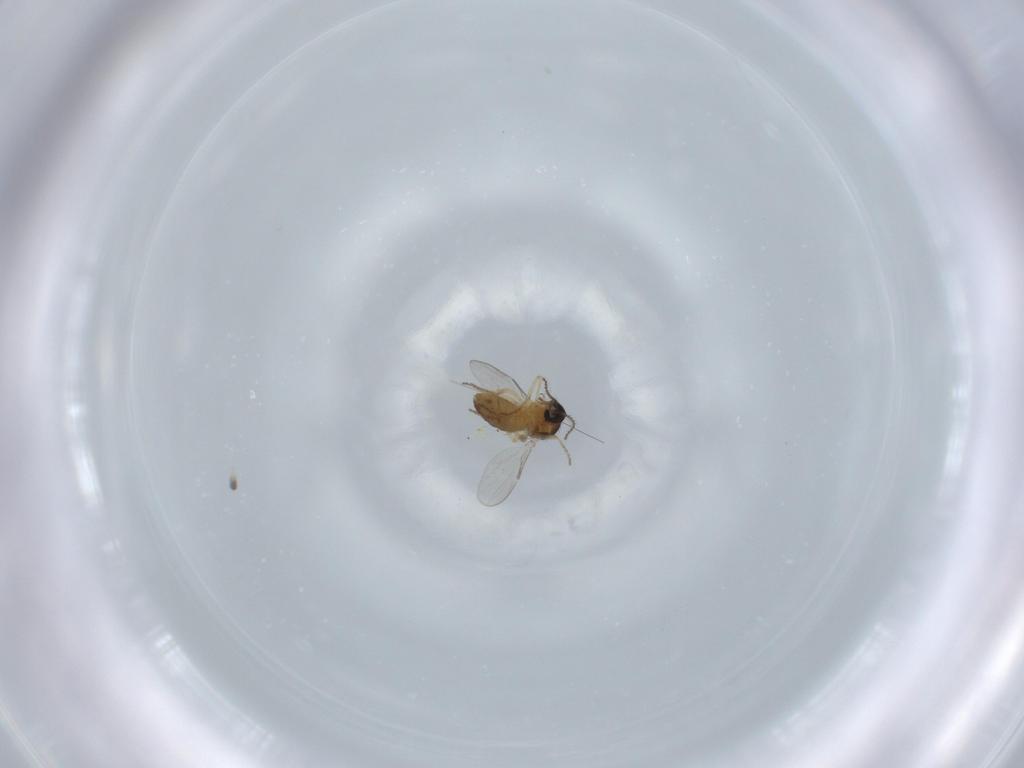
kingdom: Animalia
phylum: Arthropoda
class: Insecta
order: Diptera
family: Ceratopogonidae
